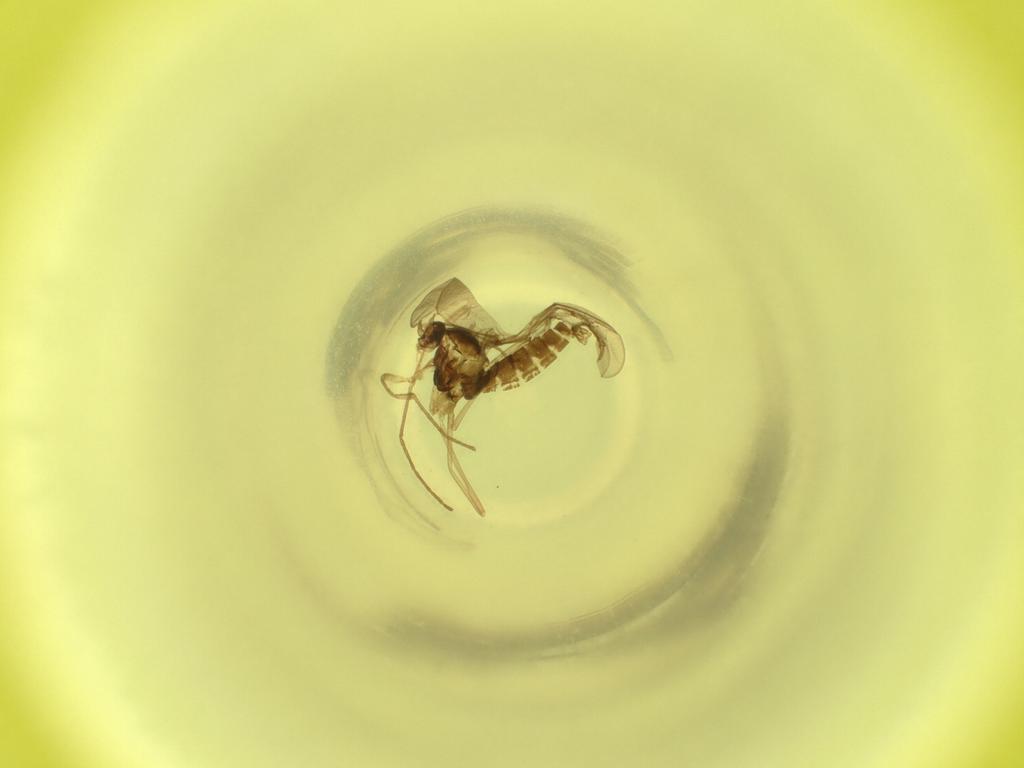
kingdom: Animalia
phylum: Arthropoda
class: Insecta
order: Diptera
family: Cecidomyiidae
